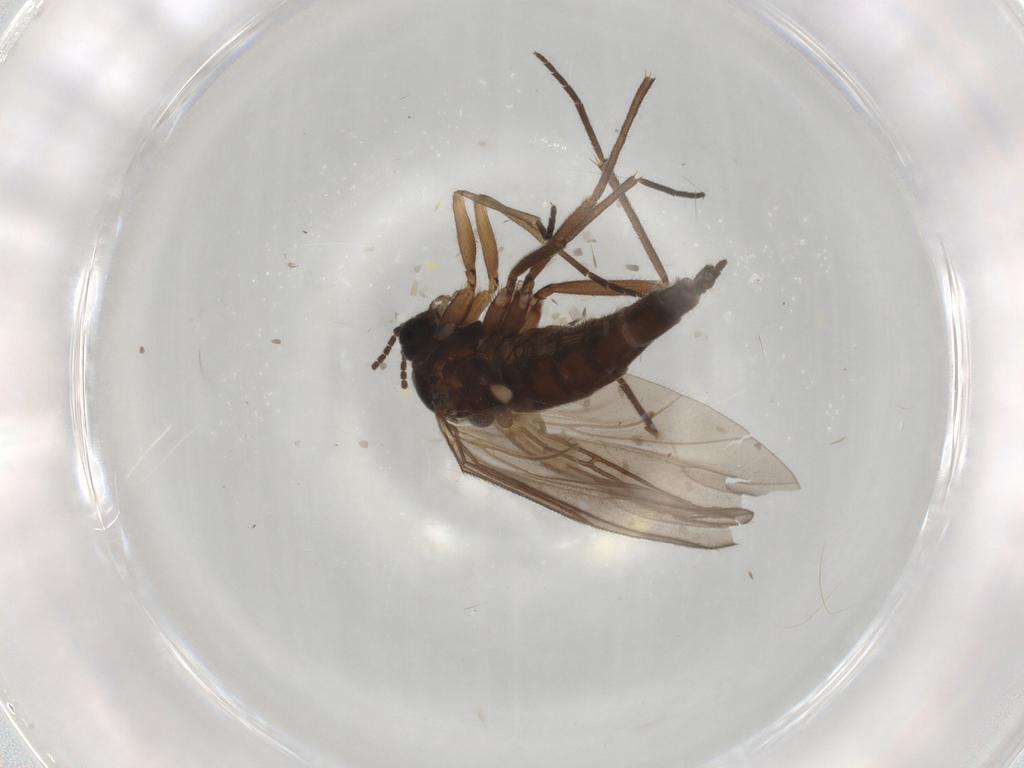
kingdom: Animalia
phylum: Arthropoda
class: Insecta
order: Diptera
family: Sciaridae
